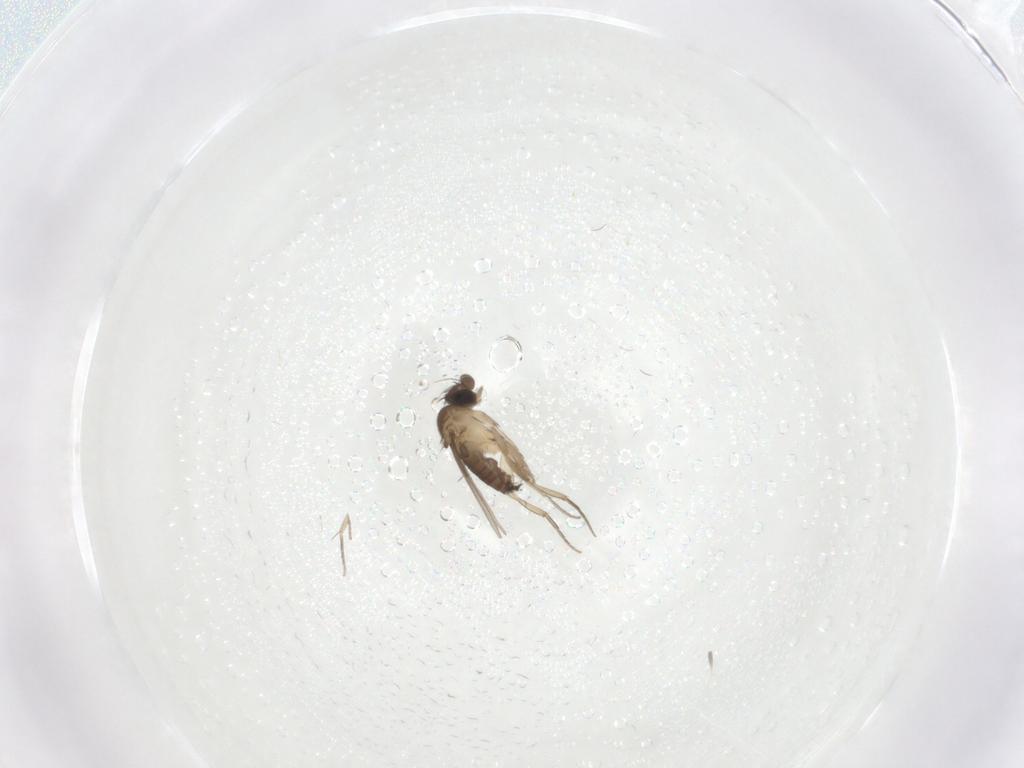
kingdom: Animalia
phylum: Arthropoda
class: Insecta
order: Diptera
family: Phoridae
